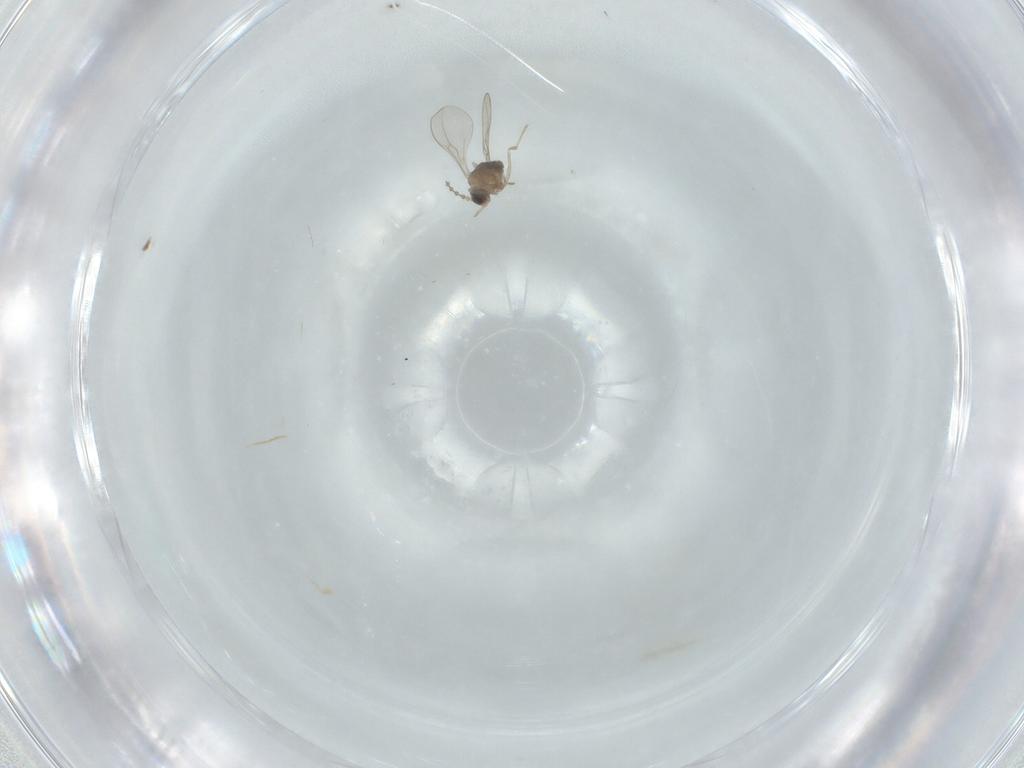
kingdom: Animalia
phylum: Arthropoda
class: Insecta
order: Diptera
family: Cecidomyiidae
